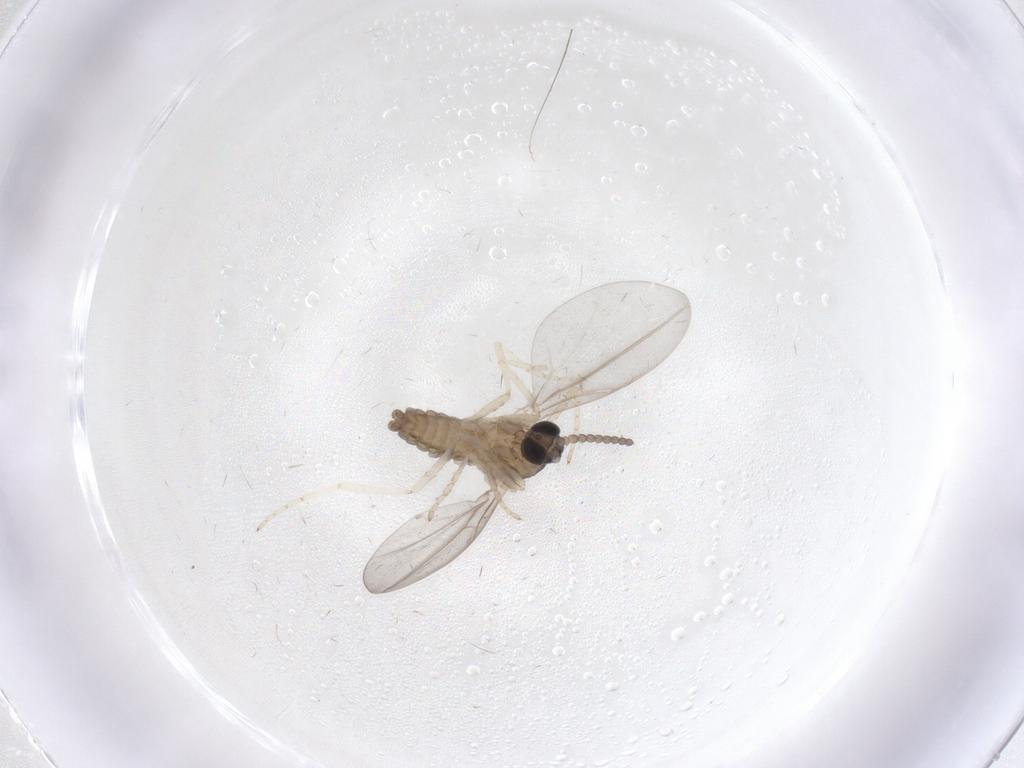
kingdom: Animalia
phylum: Arthropoda
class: Insecta
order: Diptera
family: Cecidomyiidae
